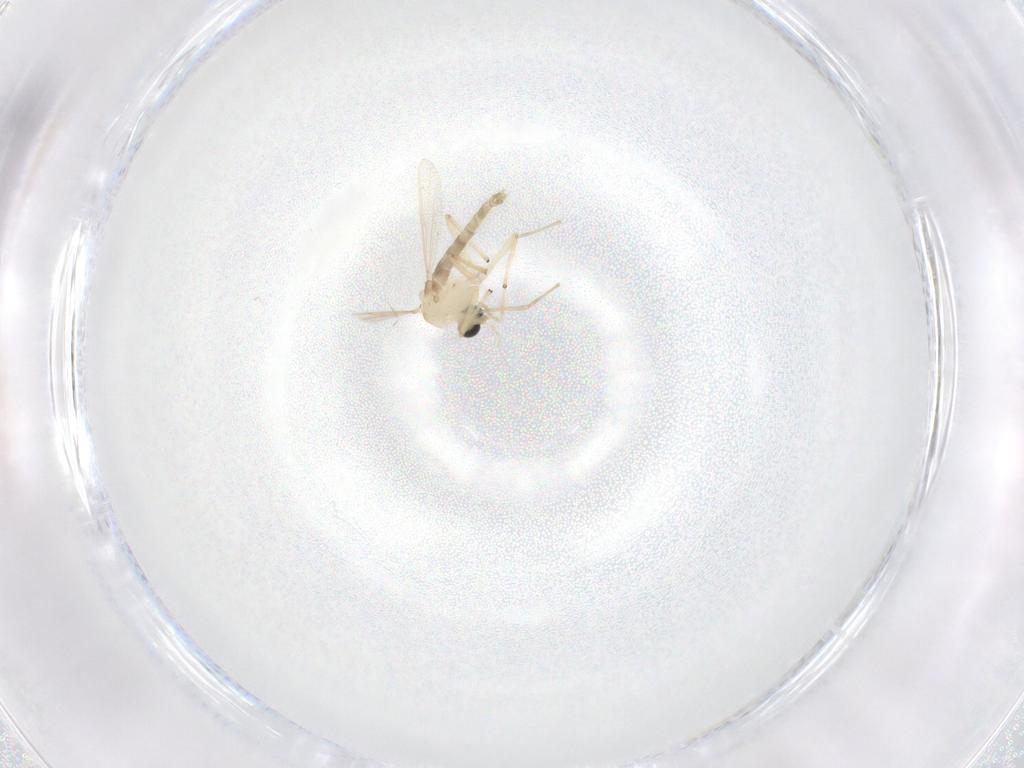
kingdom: Animalia
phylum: Arthropoda
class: Insecta
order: Diptera
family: Chironomidae
